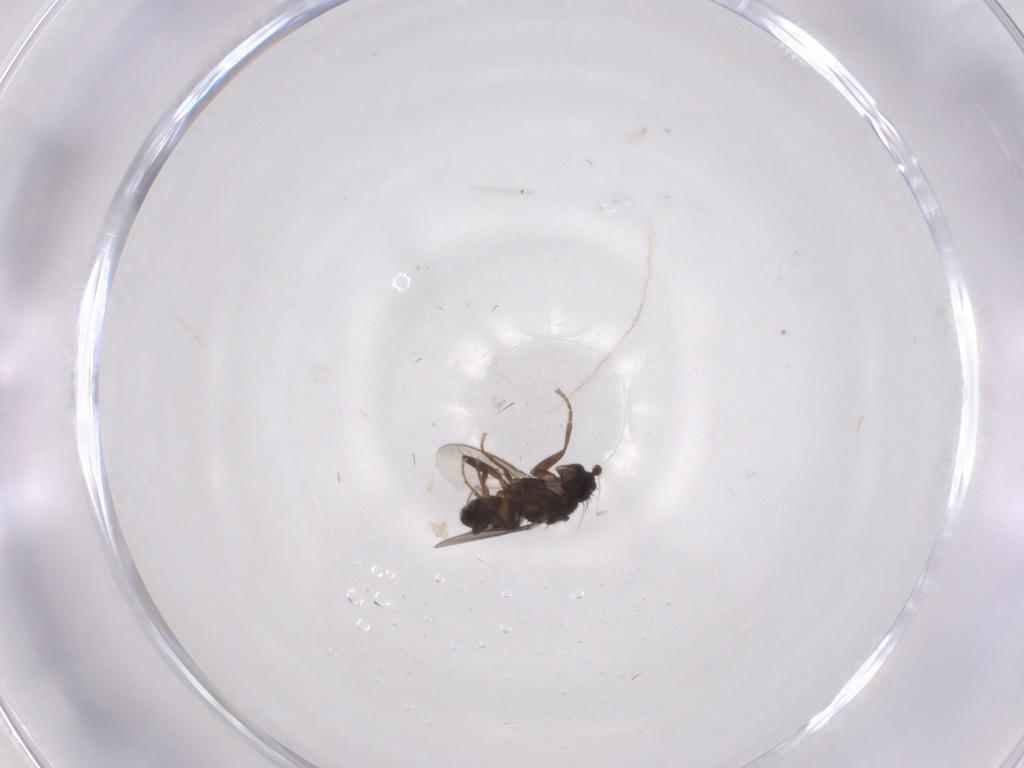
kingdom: Animalia
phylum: Arthropoda
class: Insecta
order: Diptera
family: Sphaeroceridae
